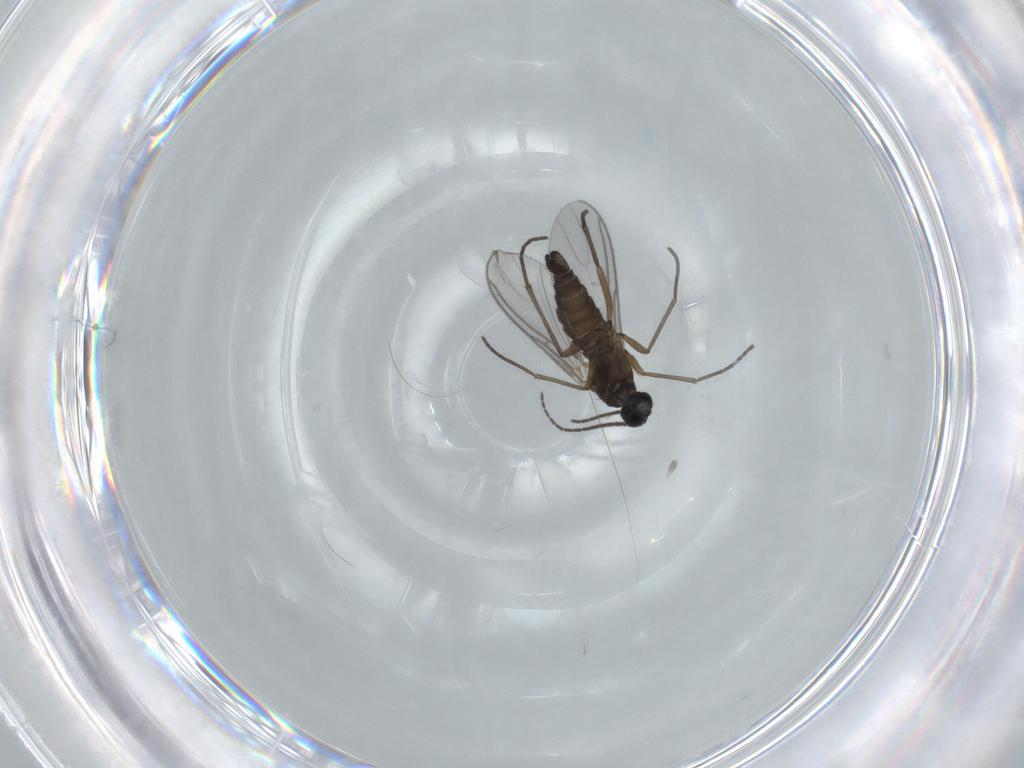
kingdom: Animalia
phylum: Arthropoda
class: Insecta
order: Diptera
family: Sciaridae
